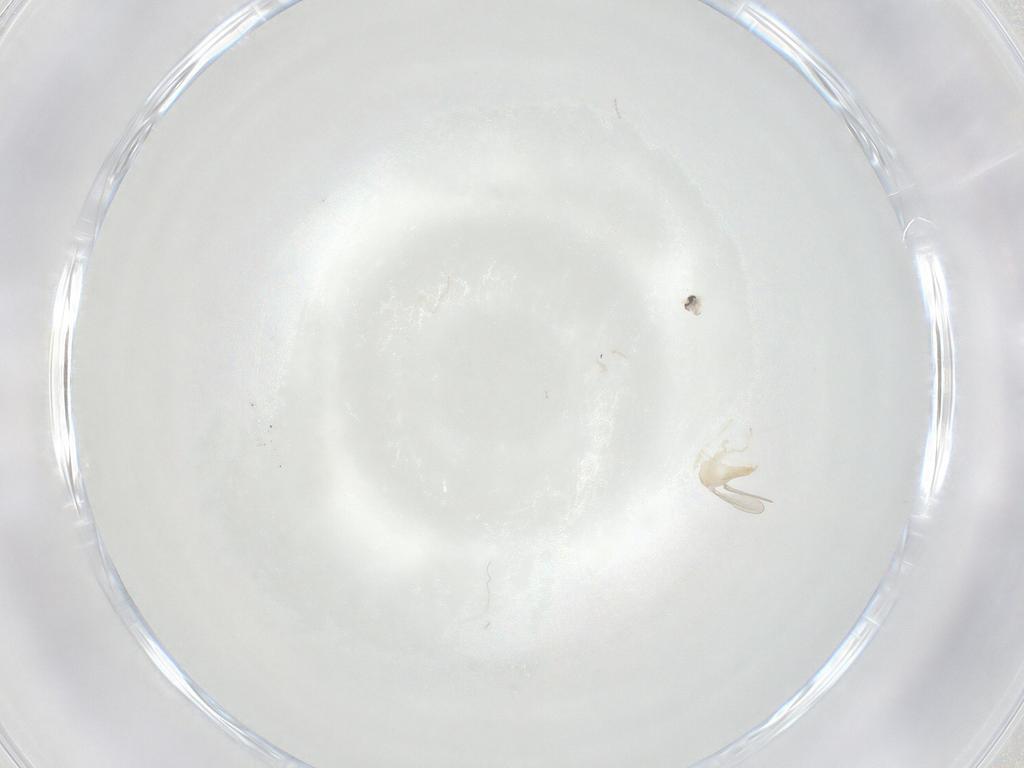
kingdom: Animalia
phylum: Arthropoda
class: Insecta
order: Diptera
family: Cecidomyiidae
